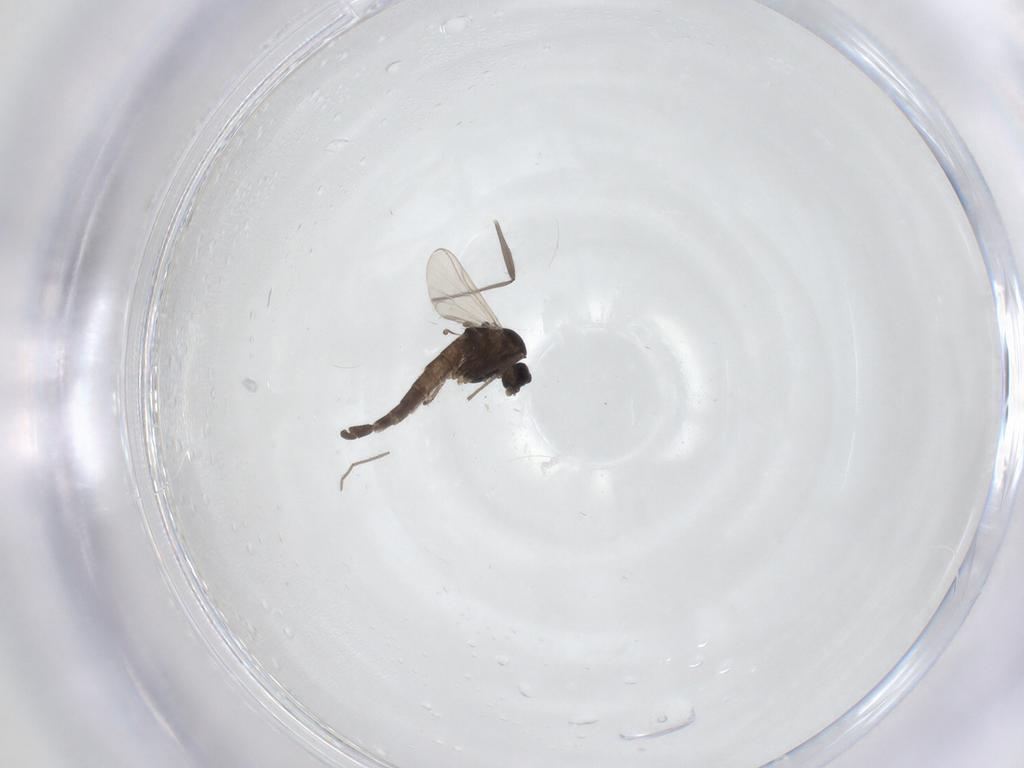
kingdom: Animalia
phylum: Arthropoda
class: Insecta
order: Diptera
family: Chironomidae
